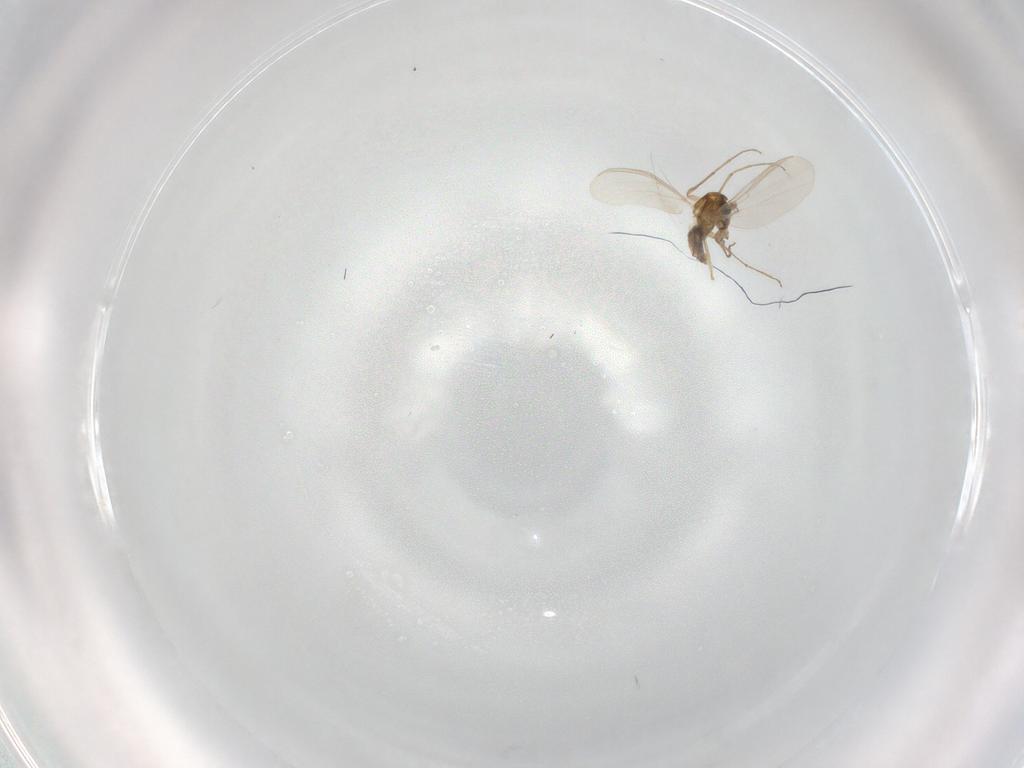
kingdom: Animalia
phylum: Arthropoda
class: Insecta
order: Diptera
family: Chironomidae
